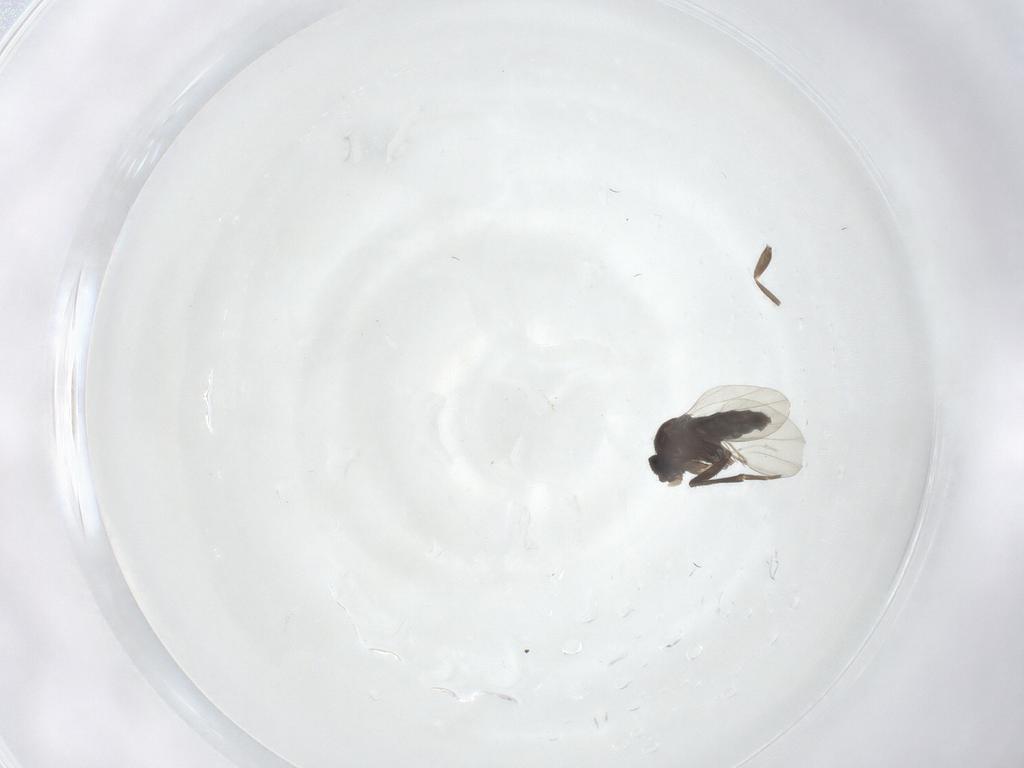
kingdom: Animalia
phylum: Arthropoda
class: Insecta
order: Diptera
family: Phoridae
